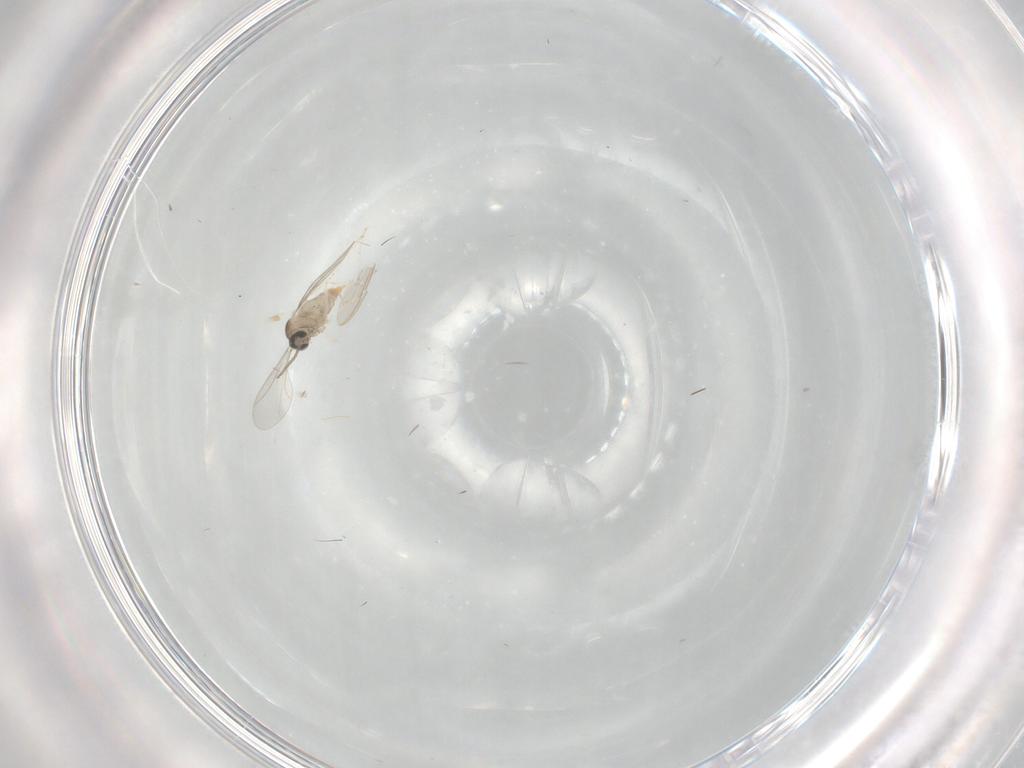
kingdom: Animalia
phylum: Arthropoda
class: Insecta
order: Diptera
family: Cecidomyiidae
